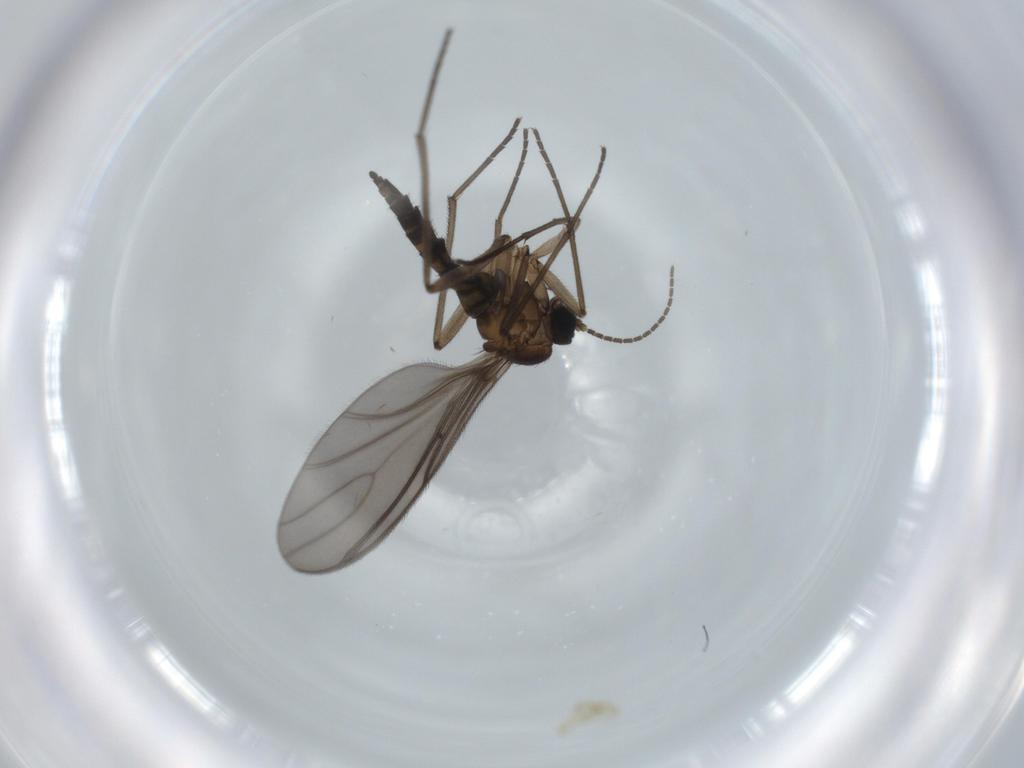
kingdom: Animalia
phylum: Arthropoda
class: Insecta
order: Diptera
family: Sciaridae
